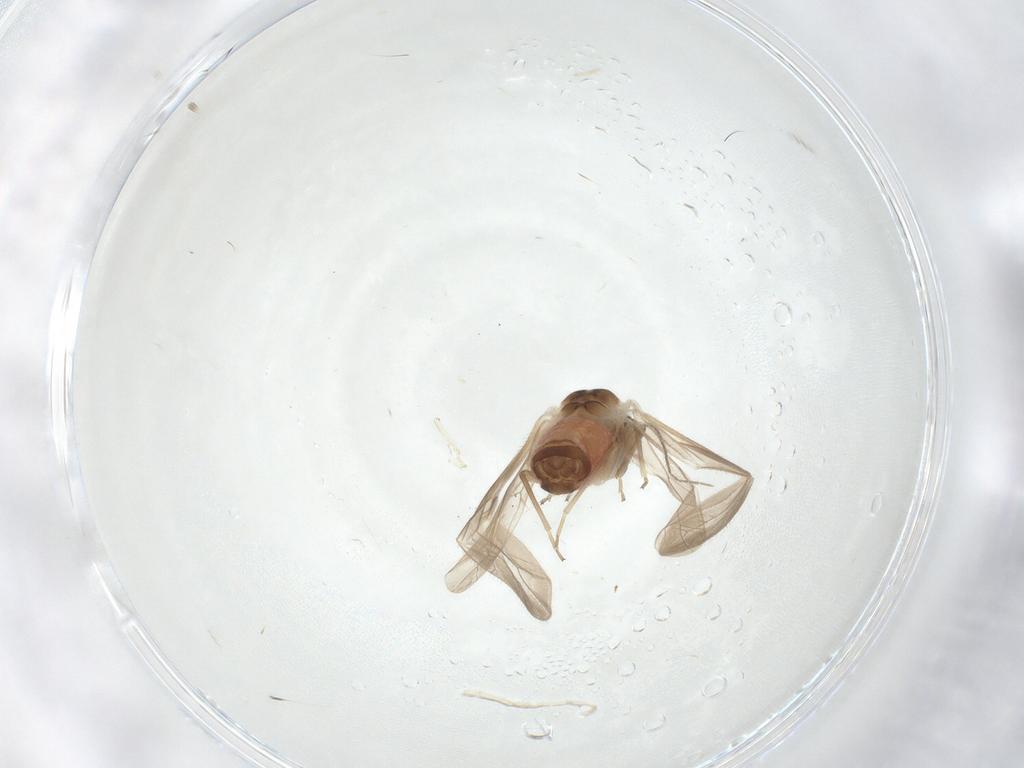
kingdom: Animalia
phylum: Arthropoda
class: Insecta
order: Psocodea
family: Caeciliusidae
